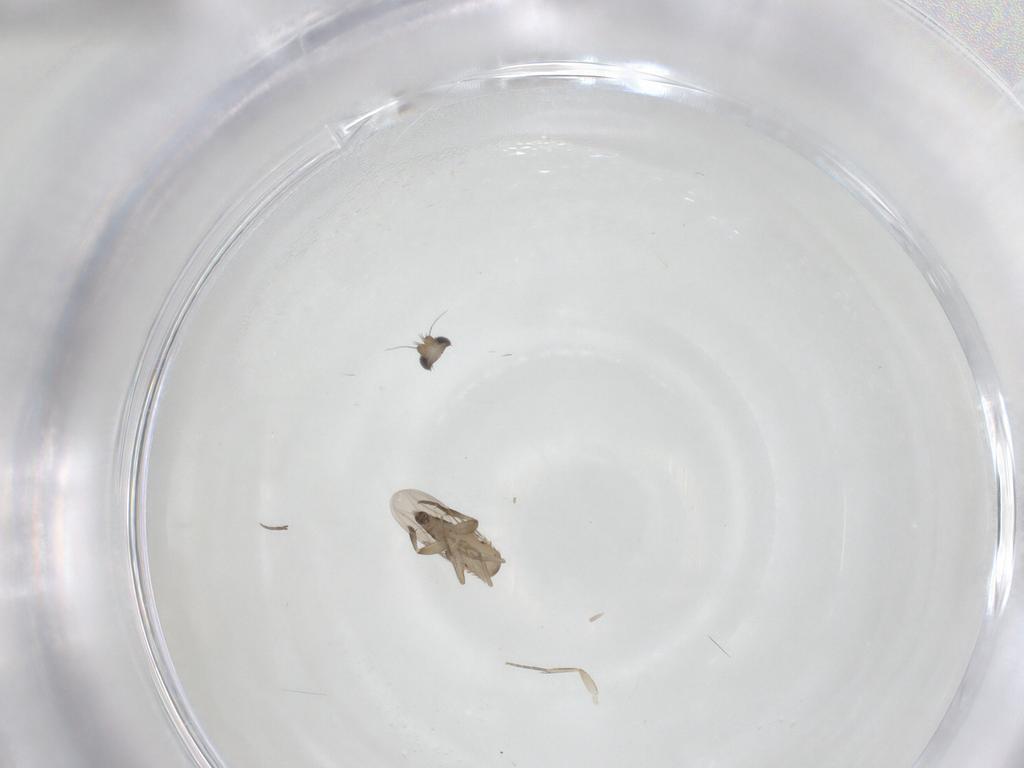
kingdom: Animalia
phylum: Arthropoda
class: Insecta
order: Diptera
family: Phoridae
